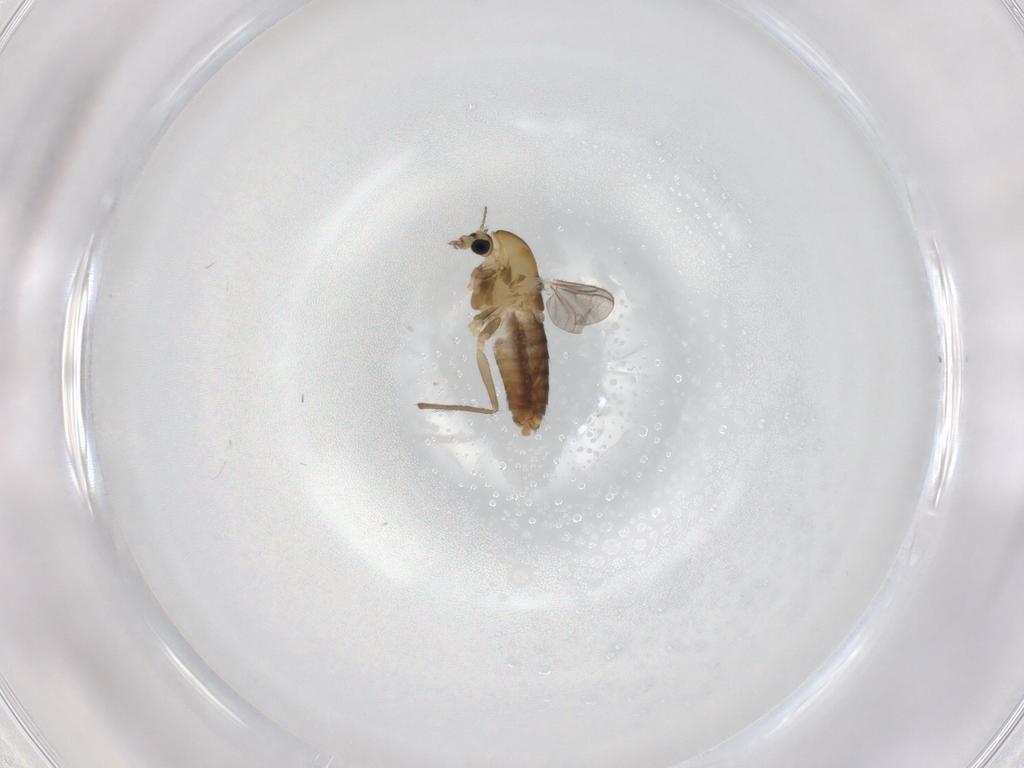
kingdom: Animalia
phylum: Arthropoda
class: Insecta
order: Diptera
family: Chironomidae
